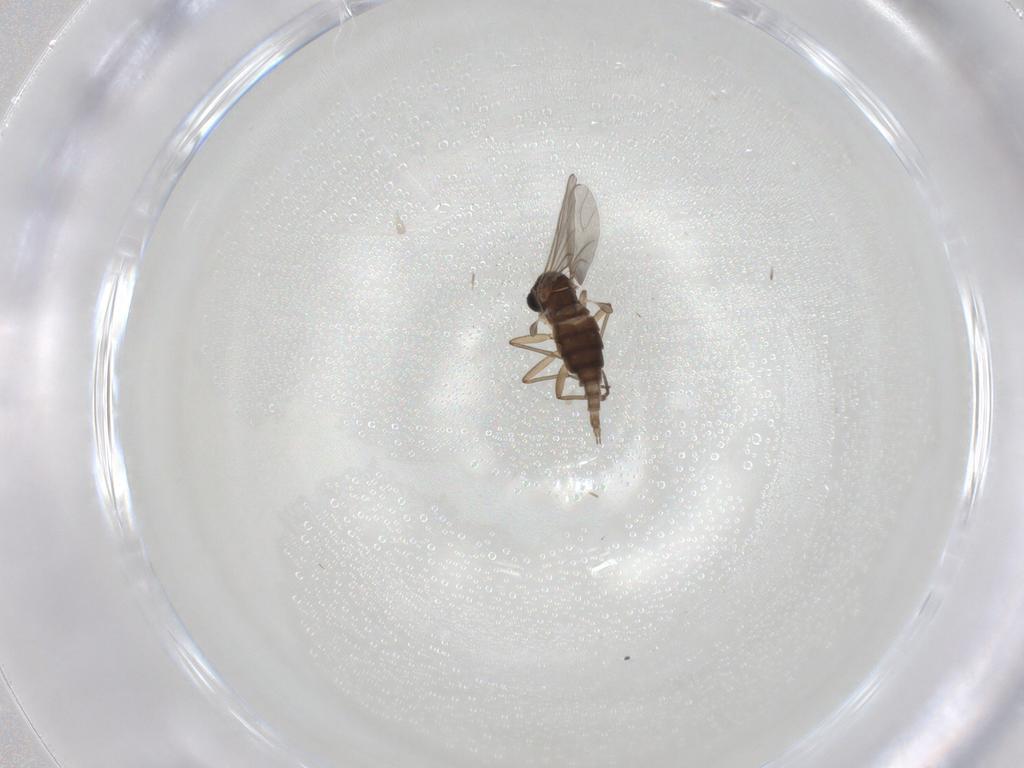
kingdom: Animalia
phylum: Arthropoda
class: Insecta
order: Diptera
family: Sciaridae
